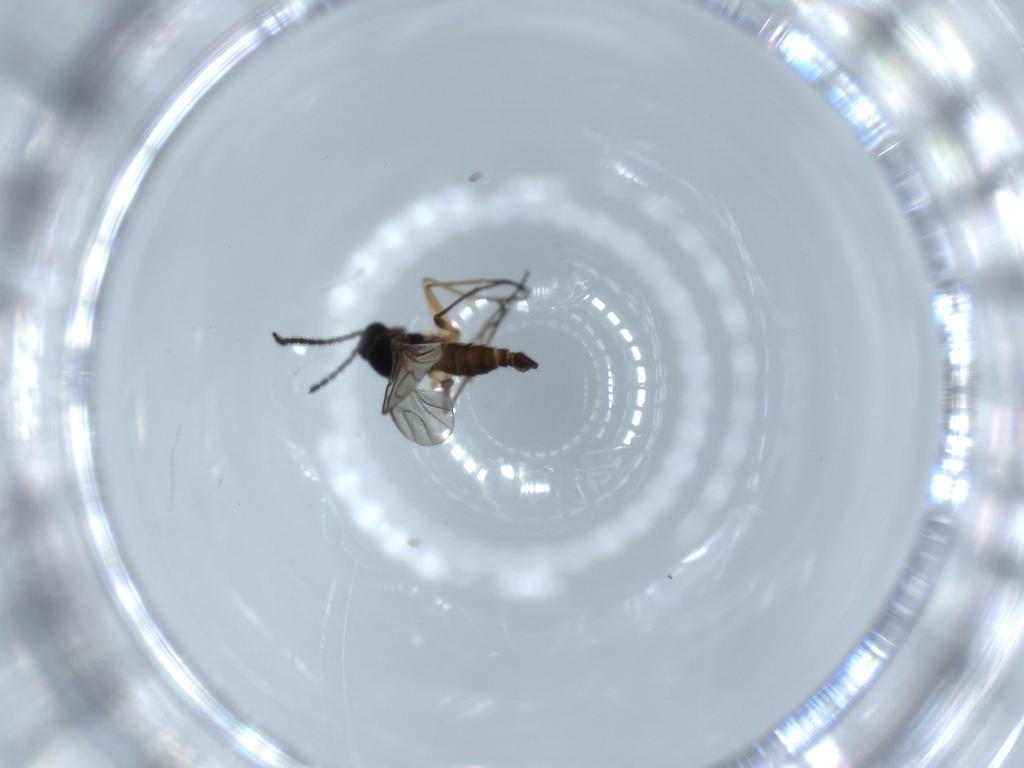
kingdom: Animalia
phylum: Arthropoda
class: Insecta
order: Diptera
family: Sciaridae
